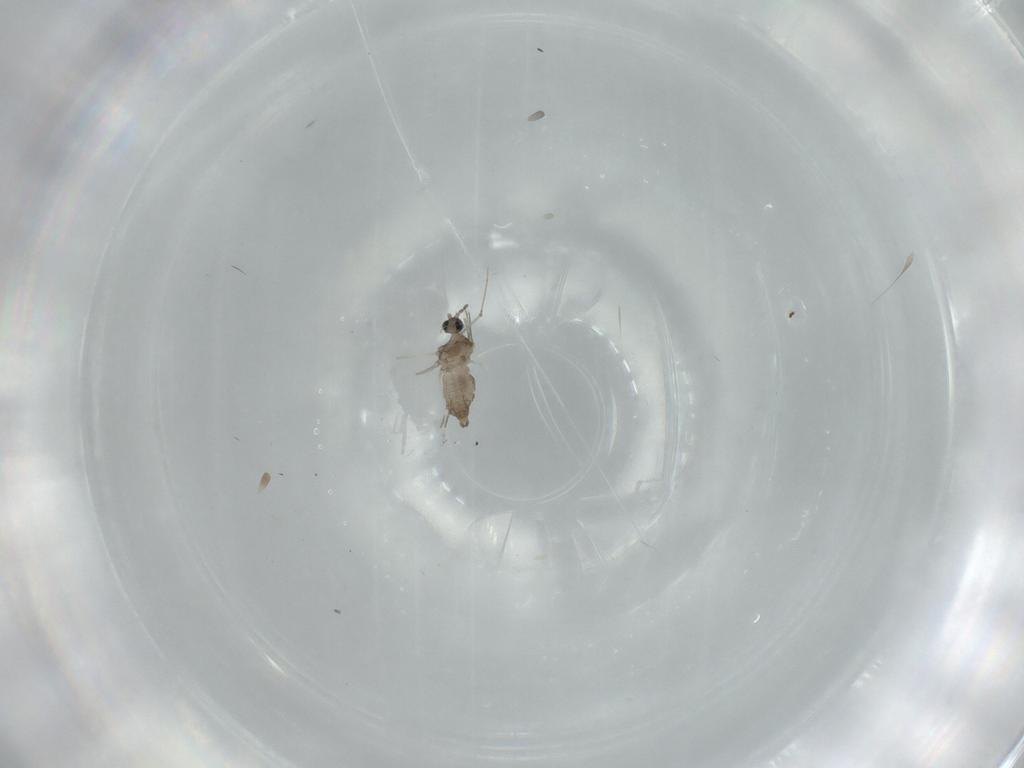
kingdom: Animalia
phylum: Arthropoda
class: Insecta
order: Diptera
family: Cecidomyiidae
